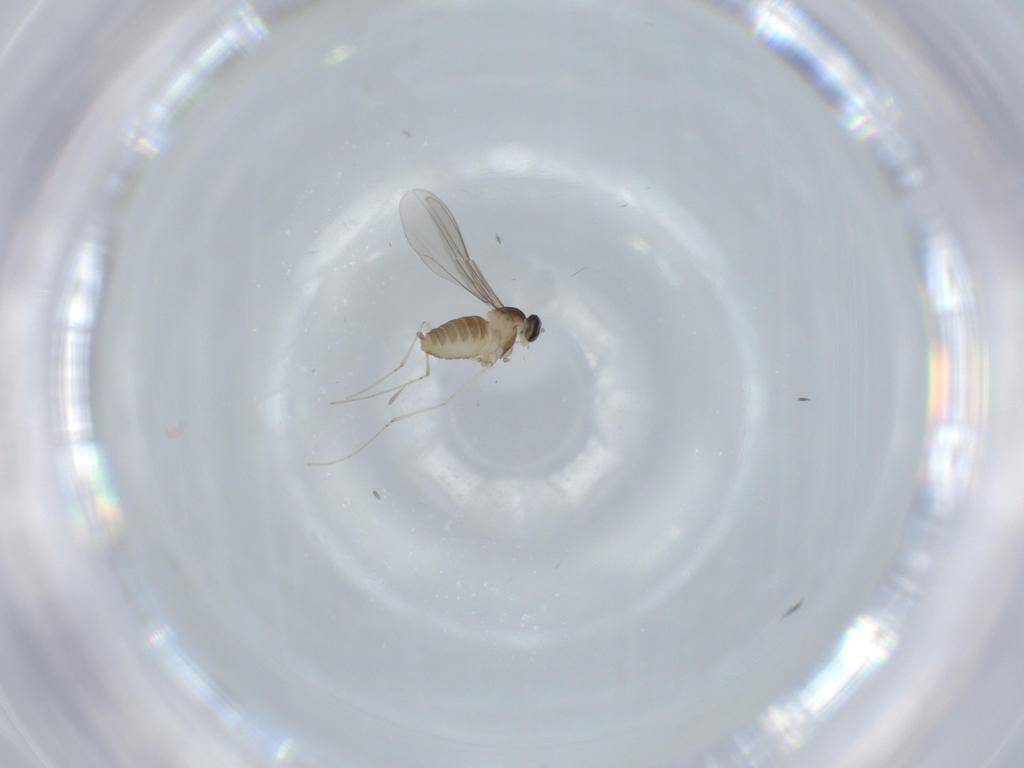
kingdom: Animalia
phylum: Arthropoda
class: Insecta
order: Diptera
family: Cecidomyiidae
